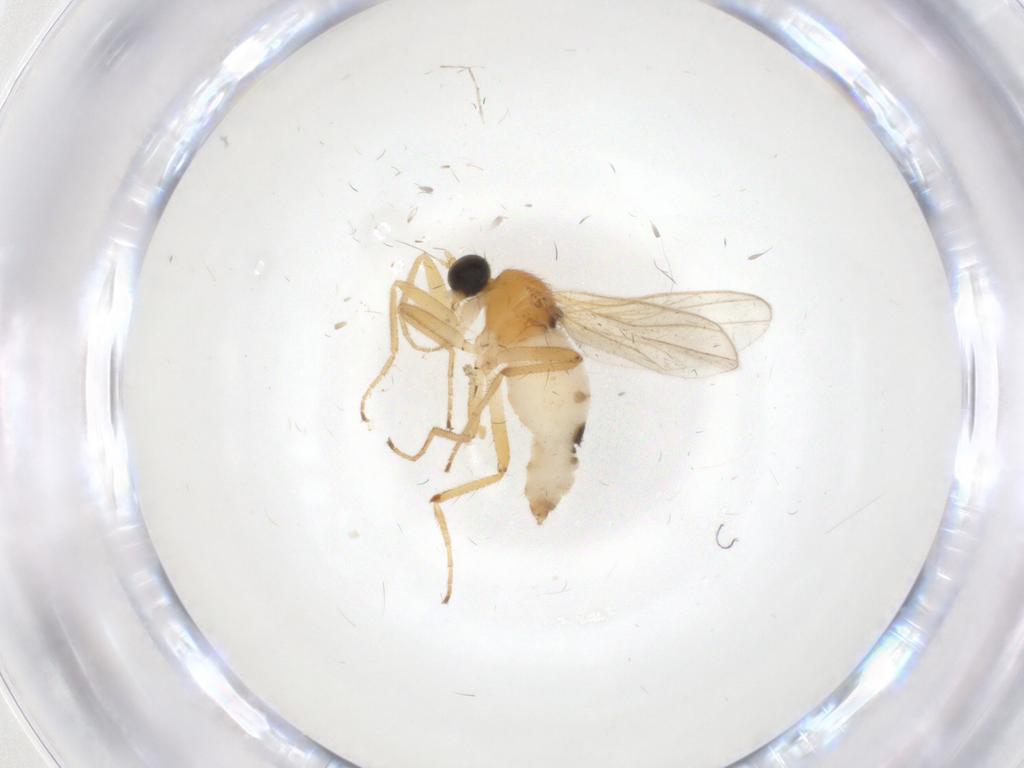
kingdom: Animalia
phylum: Arthropoda
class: Insecta
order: Diptera
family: Hybotidae
